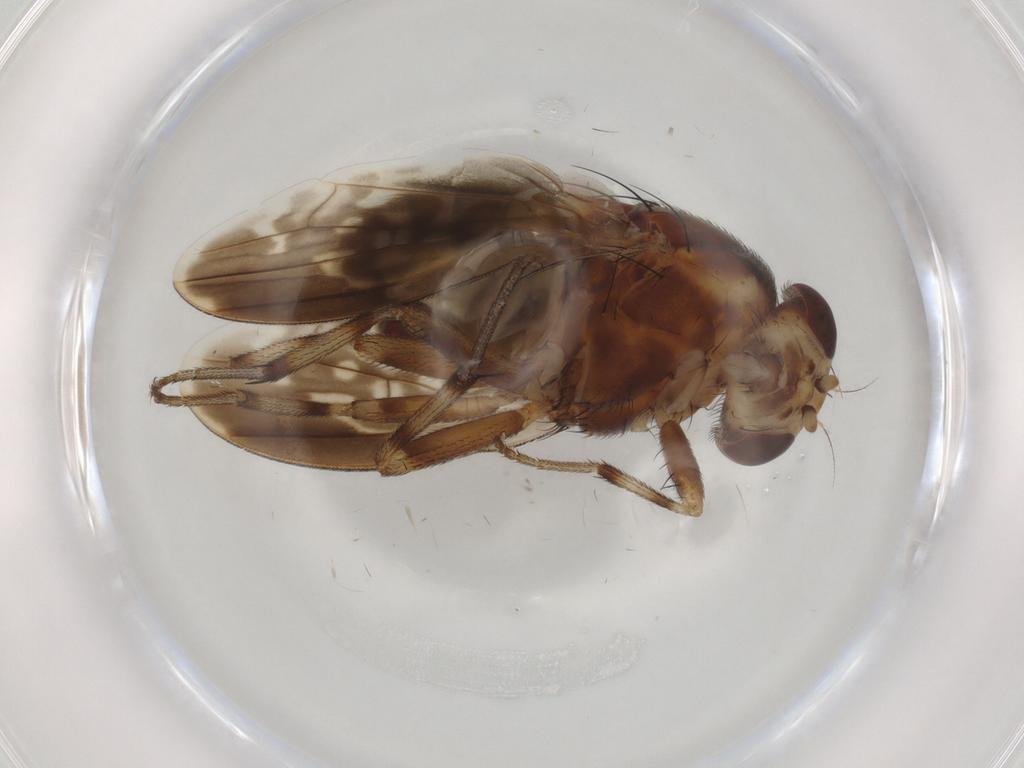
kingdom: Animalia
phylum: Arthropoda
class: Insecta
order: Diptera
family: Lauxaniidae
